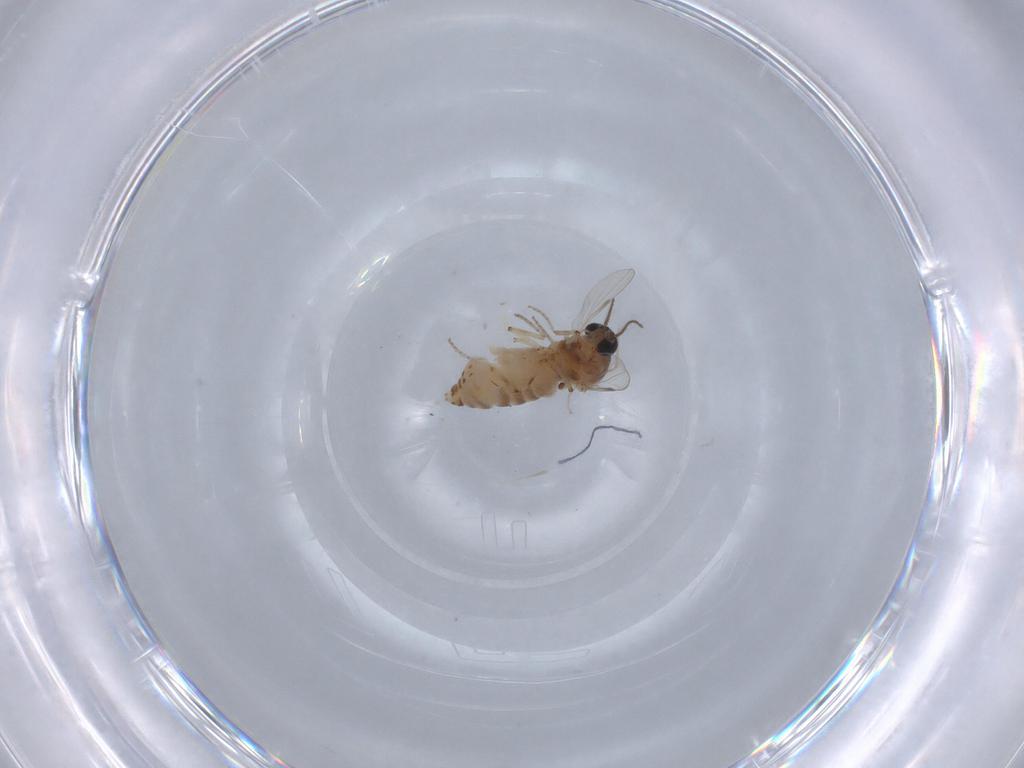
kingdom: Animalia
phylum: Arthropoda
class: Insecta
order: Diptera
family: Ceratopogonidae
